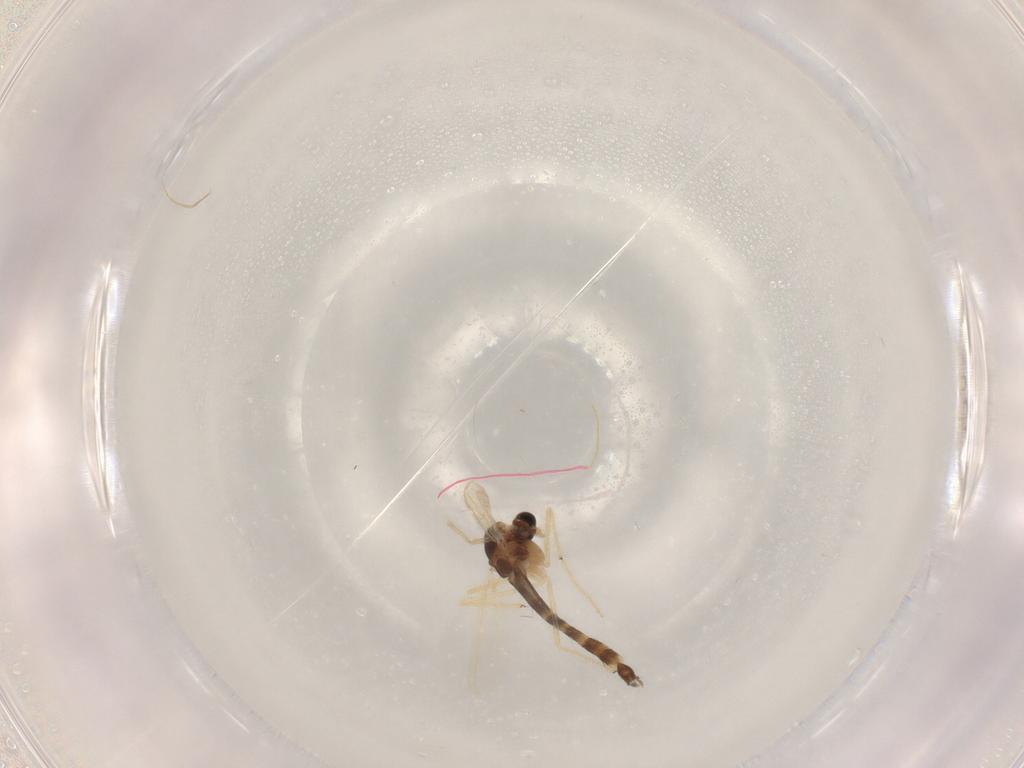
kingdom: Animalia
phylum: Arthropoda
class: Insecta
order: Diptera
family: Chironomidae
